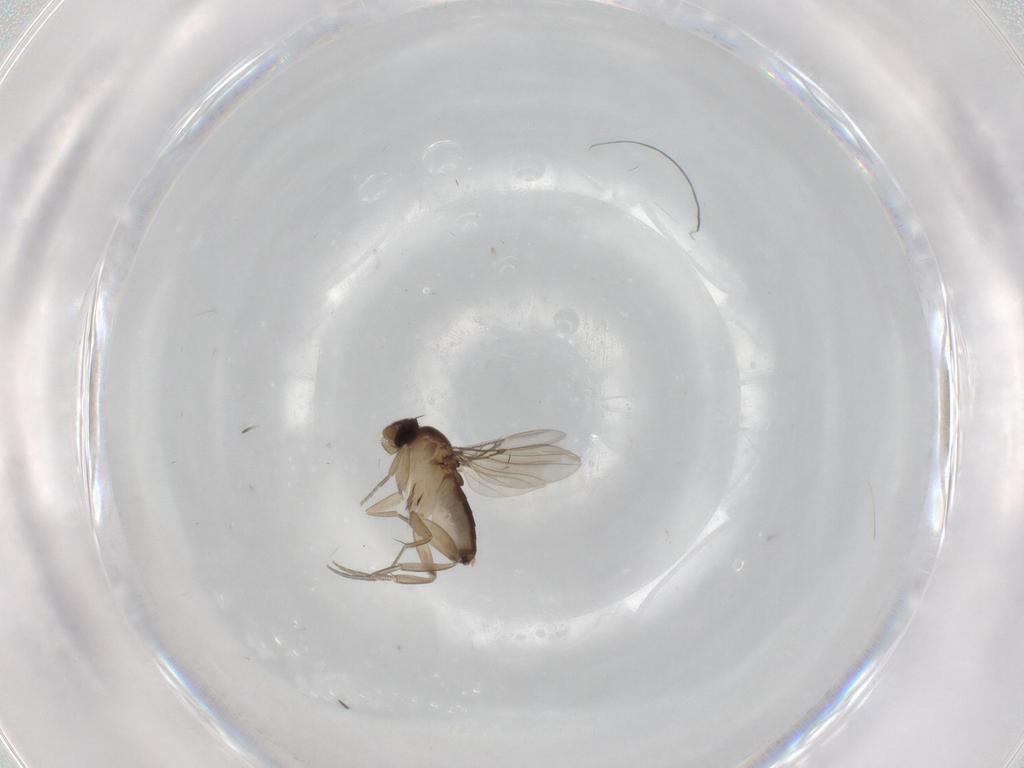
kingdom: Animalia
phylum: Arthropoda
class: Insecta
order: Diptera
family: Phoridae
